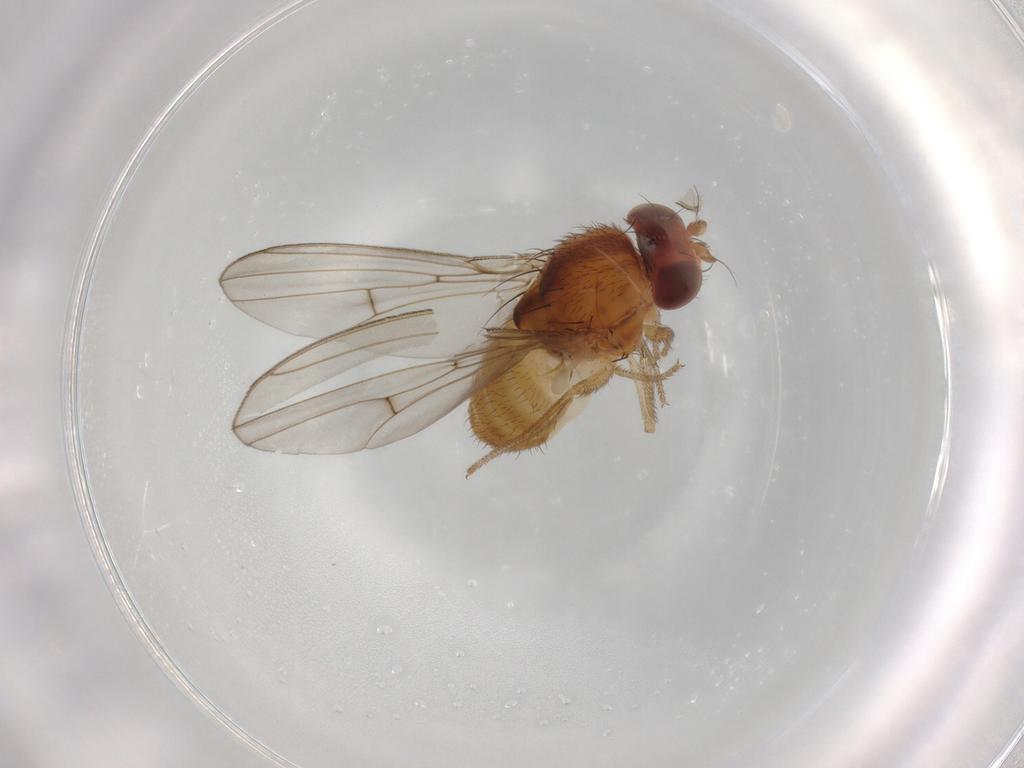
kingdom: Animalia
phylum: Arthropoda
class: Insecta
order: Diptera
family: Drosophilidae
